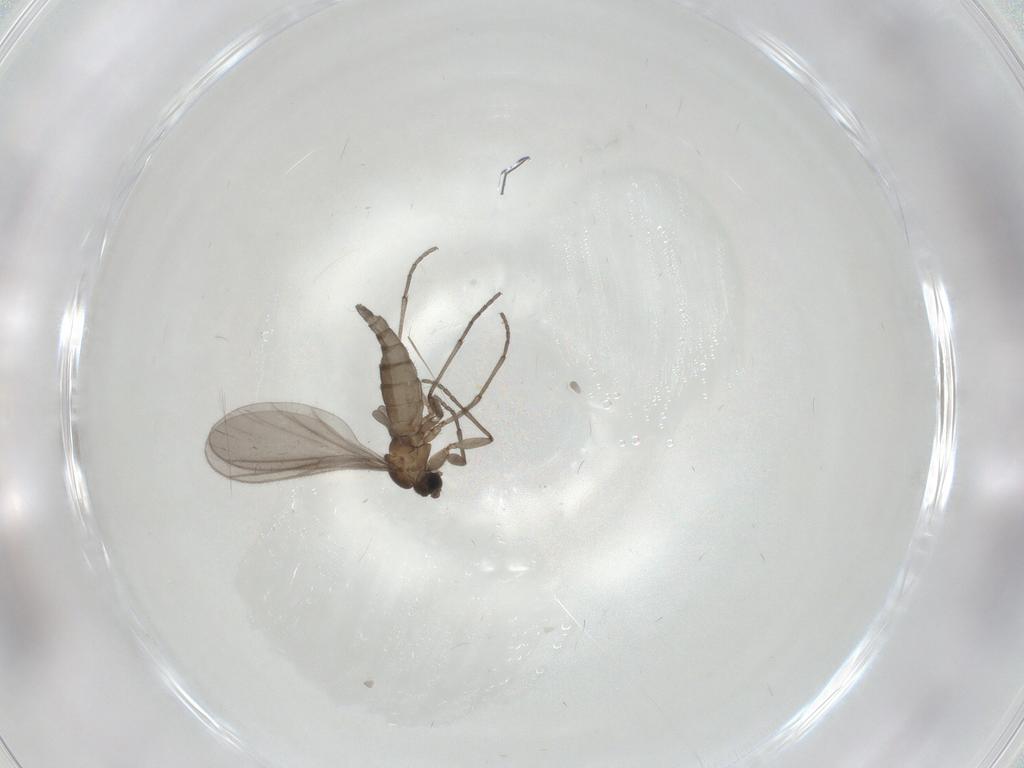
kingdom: Animalia
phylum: Arthropoda
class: Insecta
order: Diptera
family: Sciaridae
